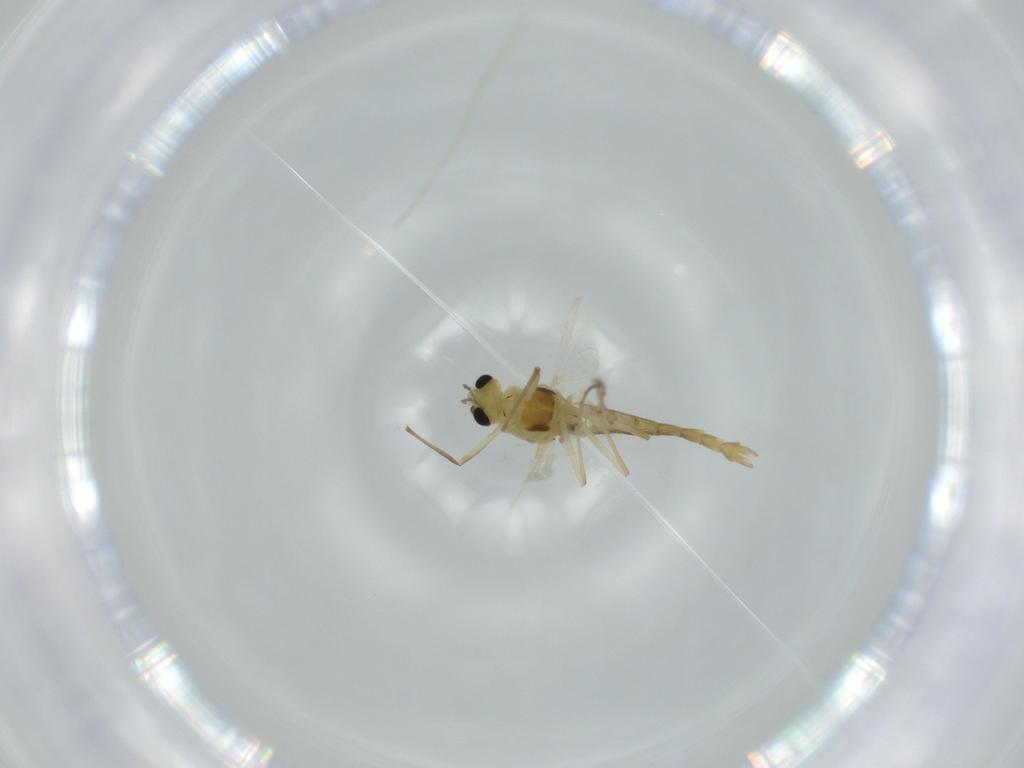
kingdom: Animalia
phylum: Arthropoda
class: Insecta
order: Diptera
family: Chironomidae
